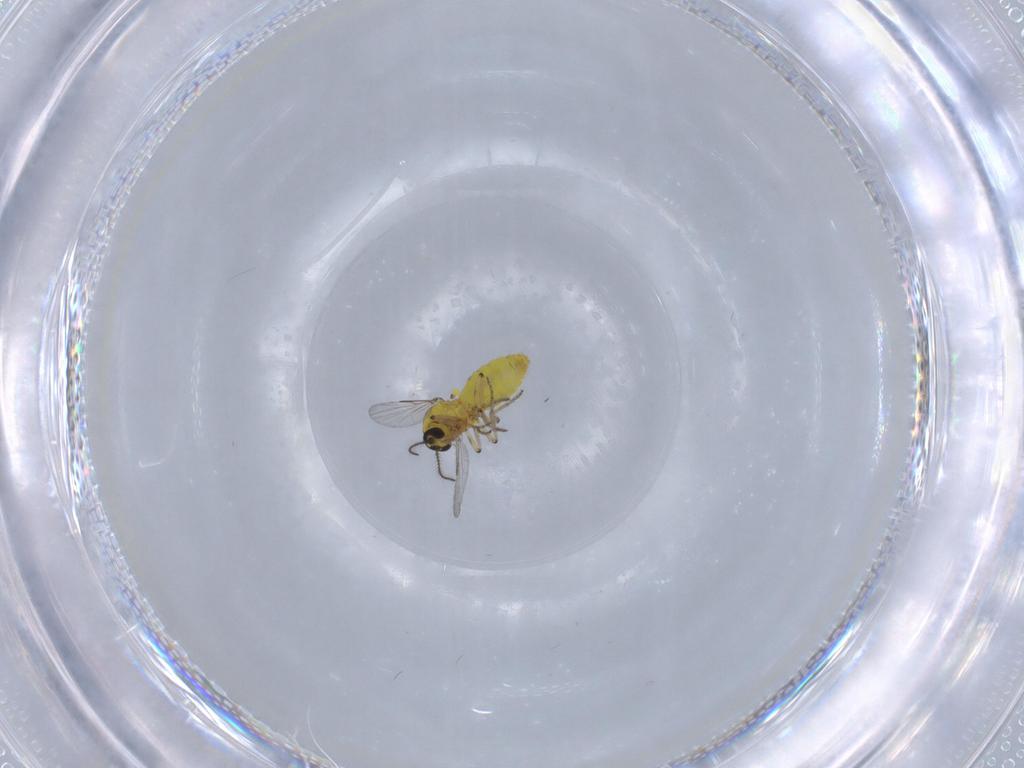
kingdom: Animalia
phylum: Arthropoda
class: Insecta
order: Diptera
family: Ceratopogonidae
